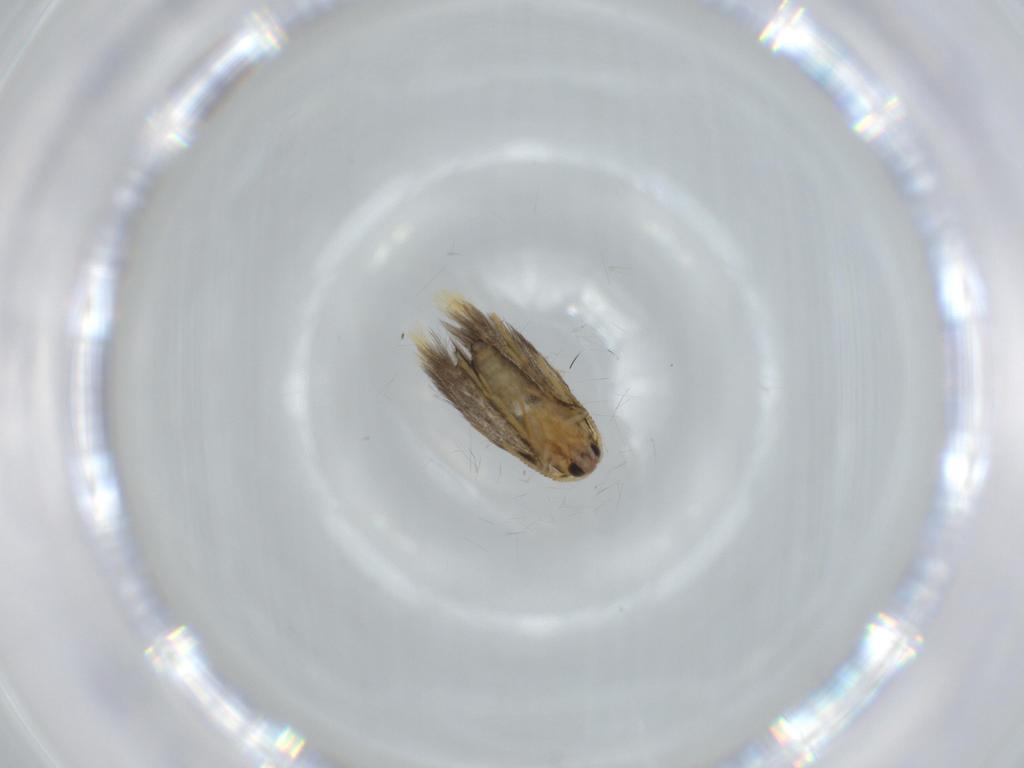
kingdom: Animalia
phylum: Arthropoda
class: Insecta
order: Lepidoptera
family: Copromorphidae
